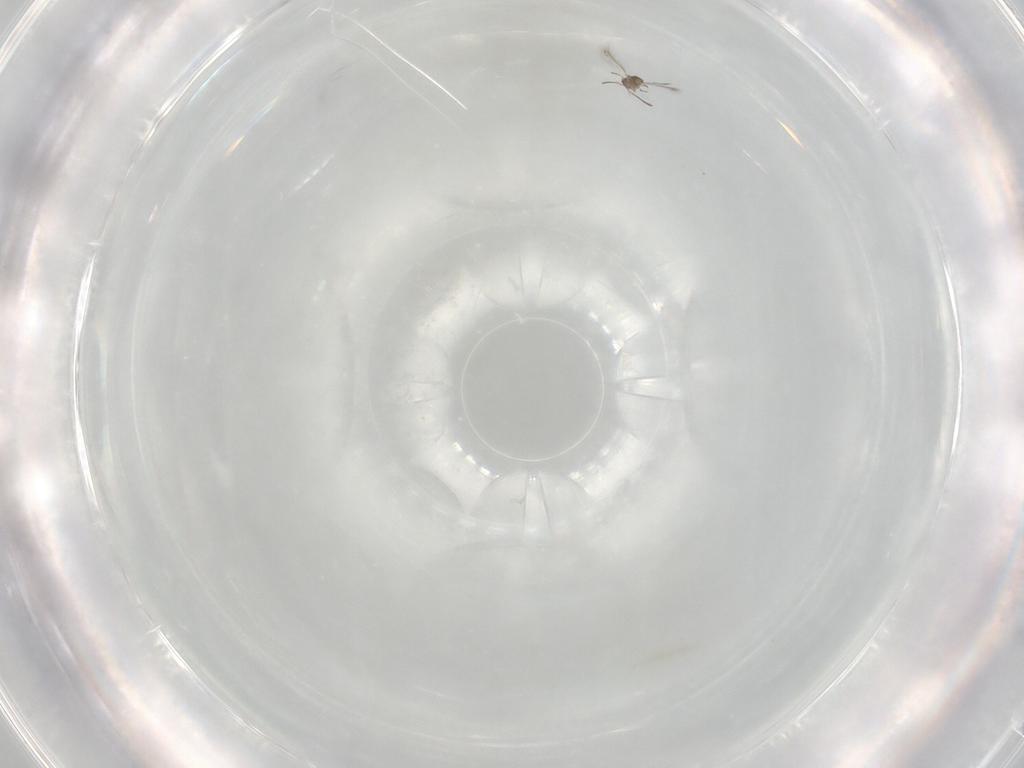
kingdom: Animalia
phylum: Arthropoda
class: Insecta
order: Hymenoptera
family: Mymaridae
